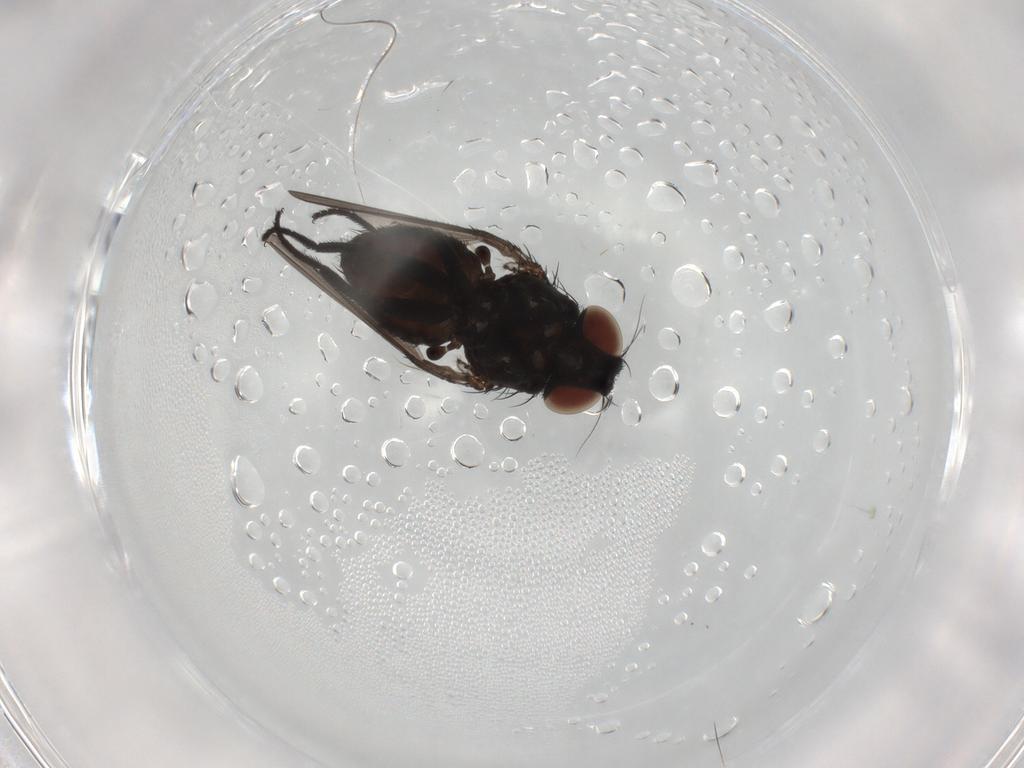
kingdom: Animalia
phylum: Arthropoda
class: Insecta
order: Diptera
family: Milichiidae
